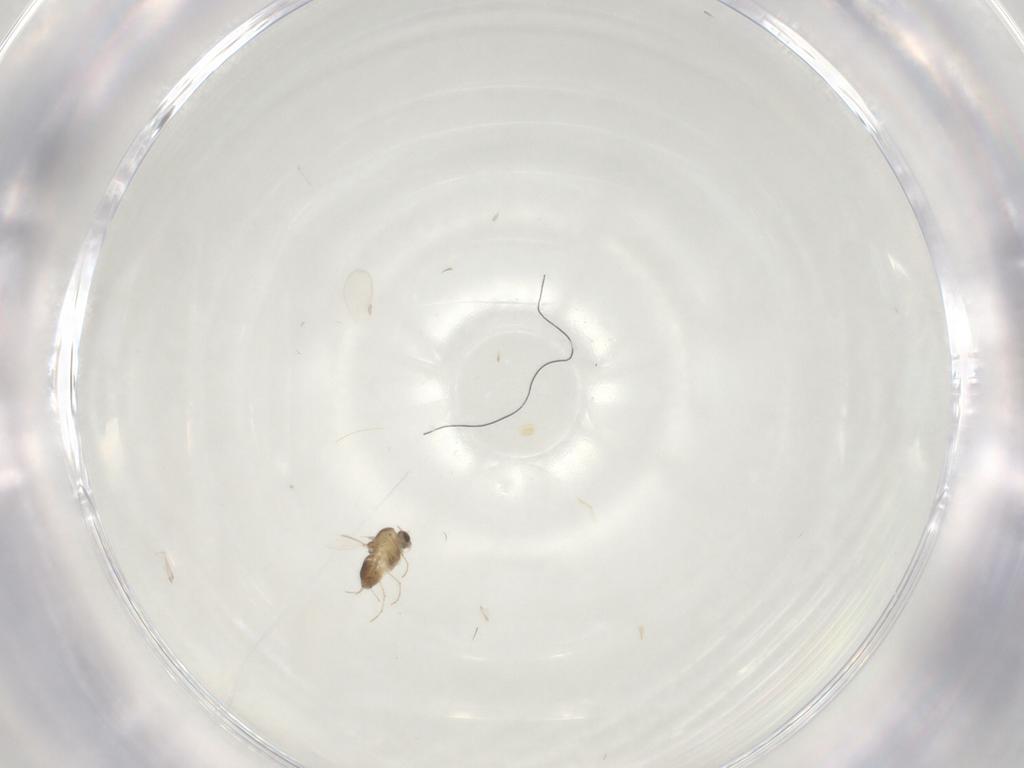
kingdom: Animalia
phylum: Arthropoda
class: Insecta
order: Diptera
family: Chironomidae
